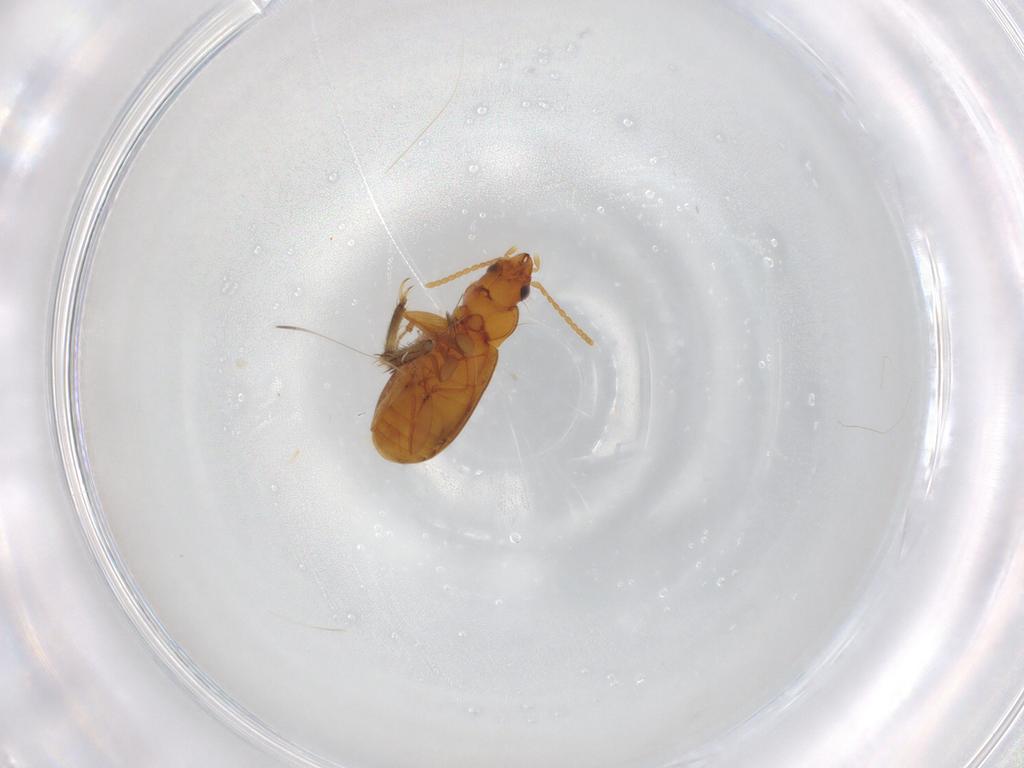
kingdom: Animalia
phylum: Arthropoda
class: Insecta
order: Coleoptera
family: Carabidae
